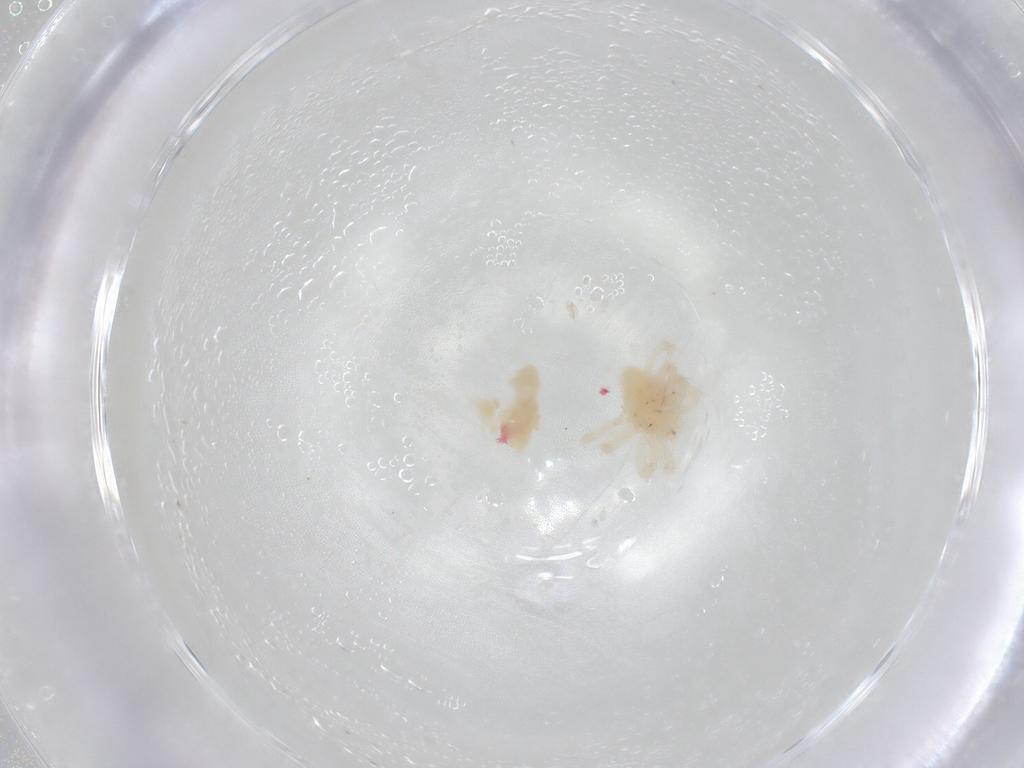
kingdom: Animalia
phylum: Arthropoda
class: Arachnida
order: Trombidiformes
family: Anystidae
